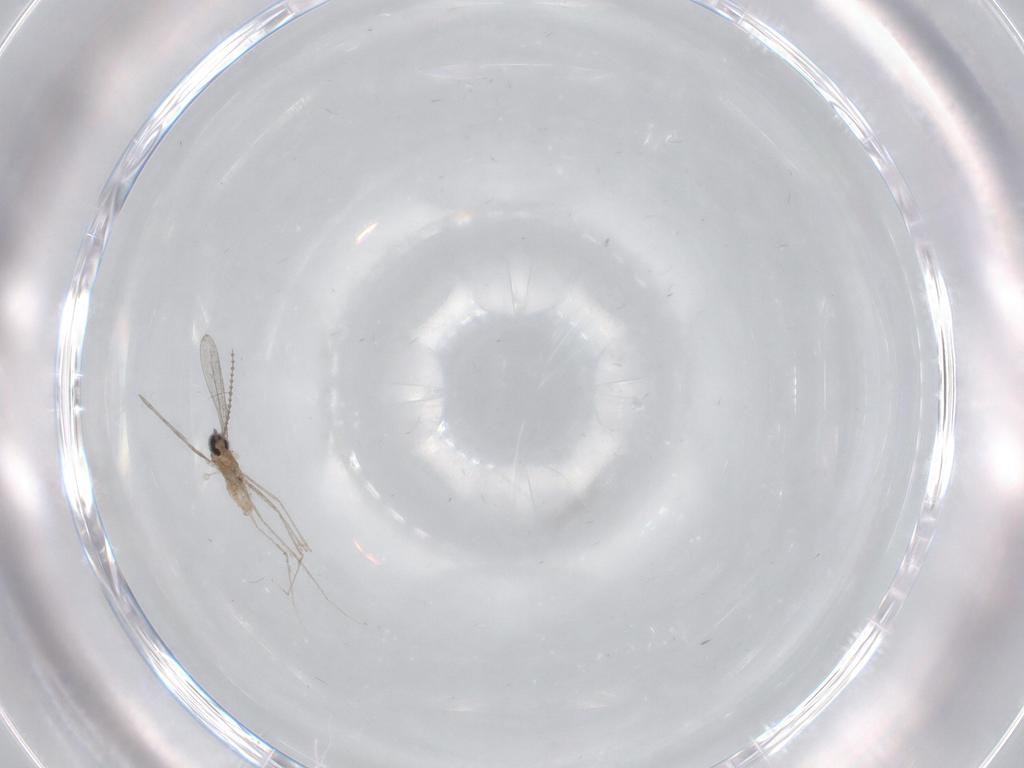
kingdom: Animalia
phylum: Arthropoda
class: Insecta
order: Diptera
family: Cecidomyiidae
